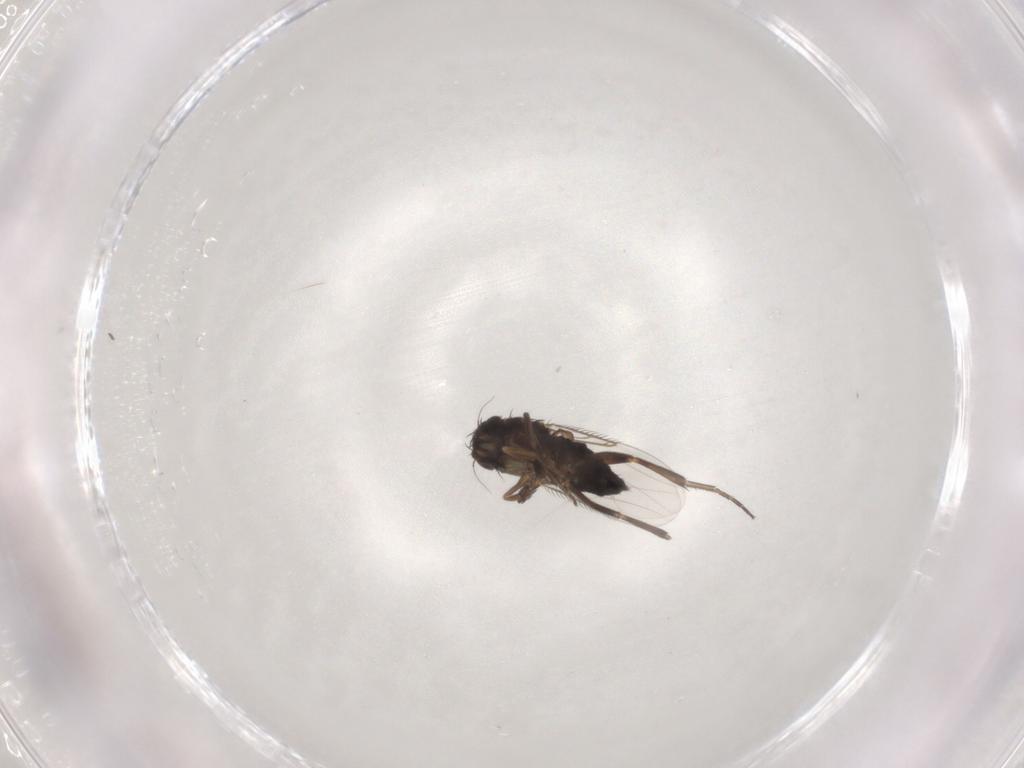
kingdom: Animalia
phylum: Arthropoda
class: Insecta
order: Diptera
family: Phoridae
